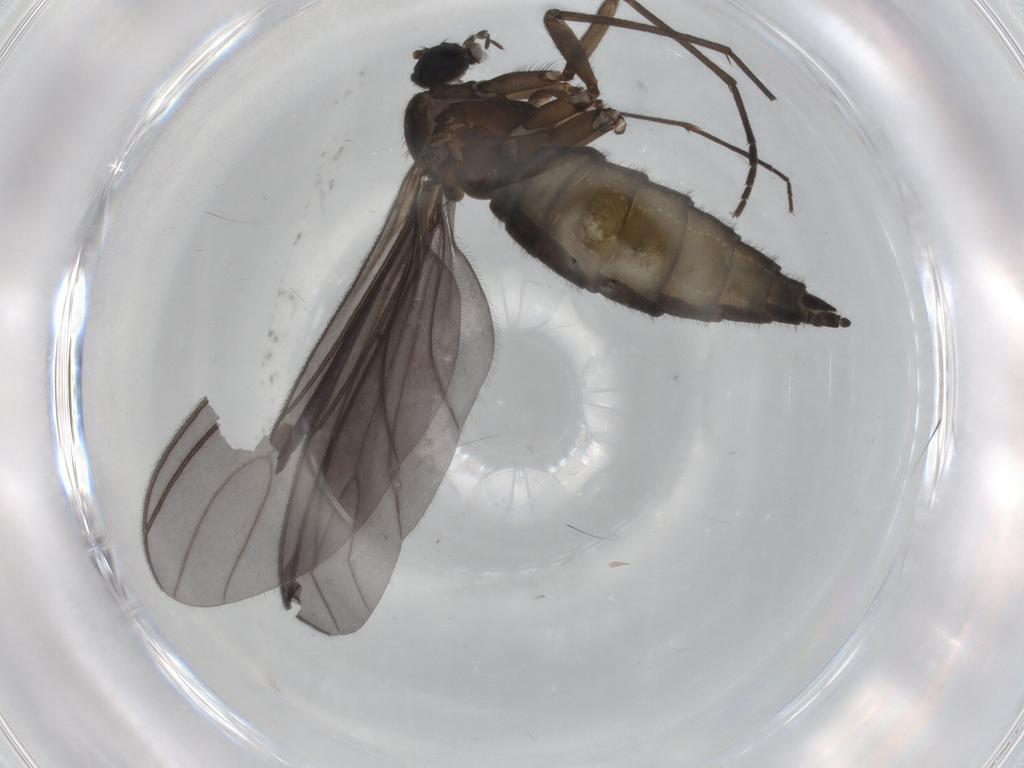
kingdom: Animalia
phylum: Arthropoda
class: Insecta
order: Diptera
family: Sciaridae
